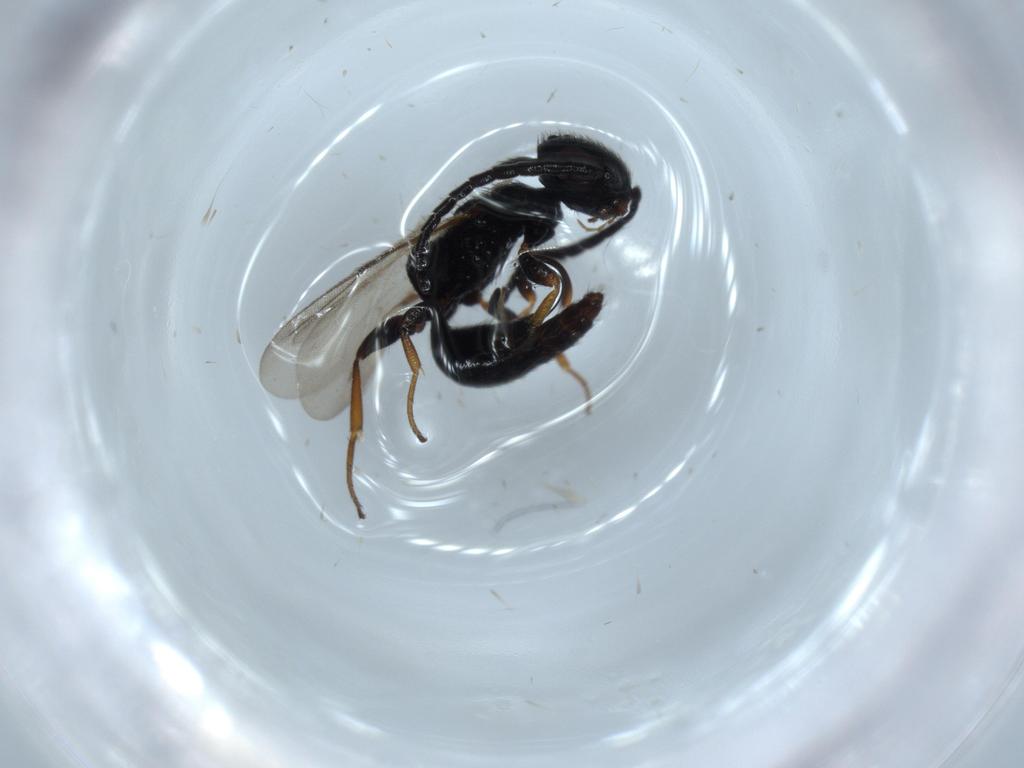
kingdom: Animalia
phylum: Arthropoda
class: Insecta
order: Hymenoptera
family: Bethylidae
